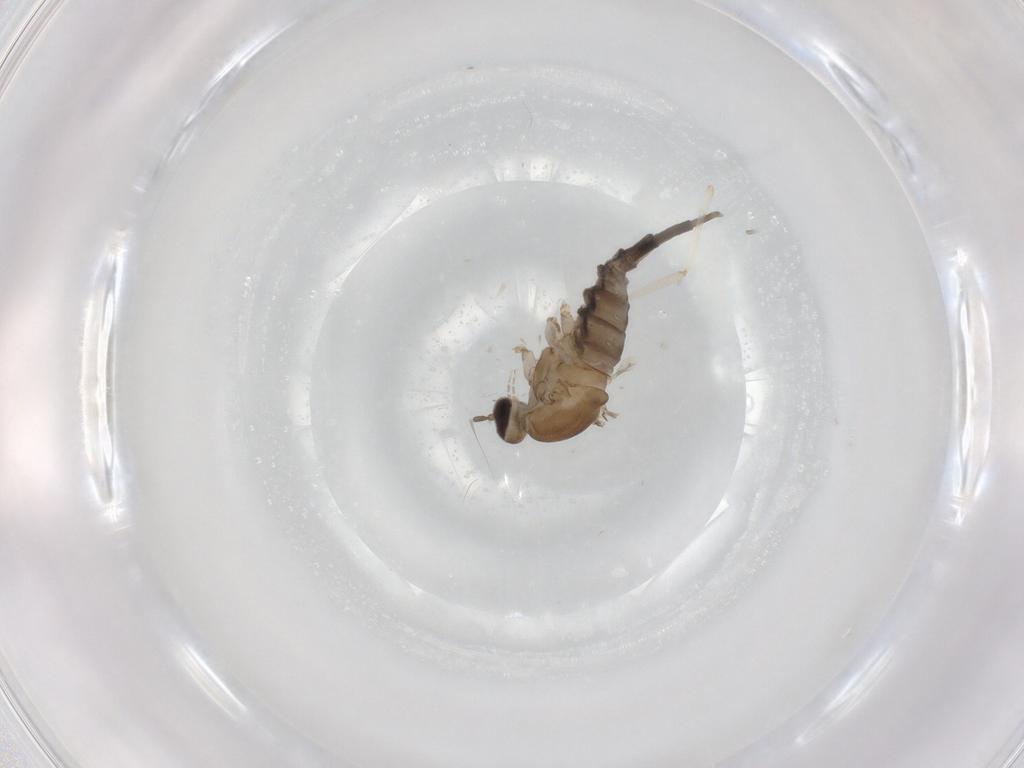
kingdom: Animalia
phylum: Arthropoda
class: Insecta
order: Diptera
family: Cecidomyiidae
